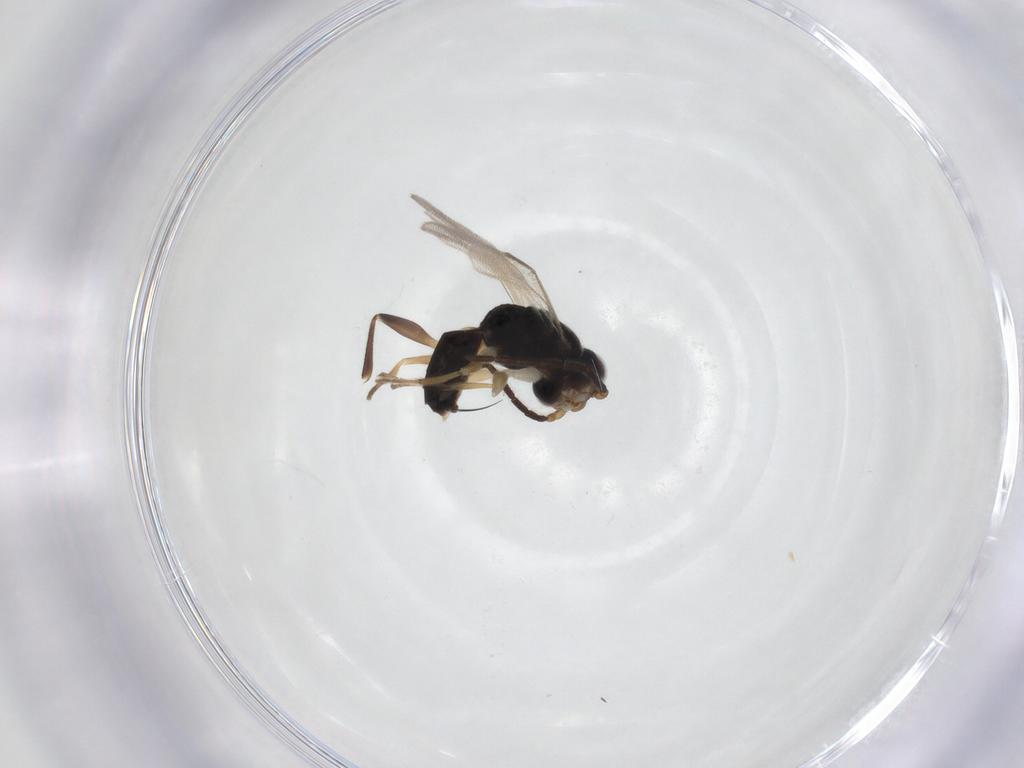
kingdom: Animalia
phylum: Arthropoda
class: Insecta
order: Hymenoptera
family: Dryinidae
